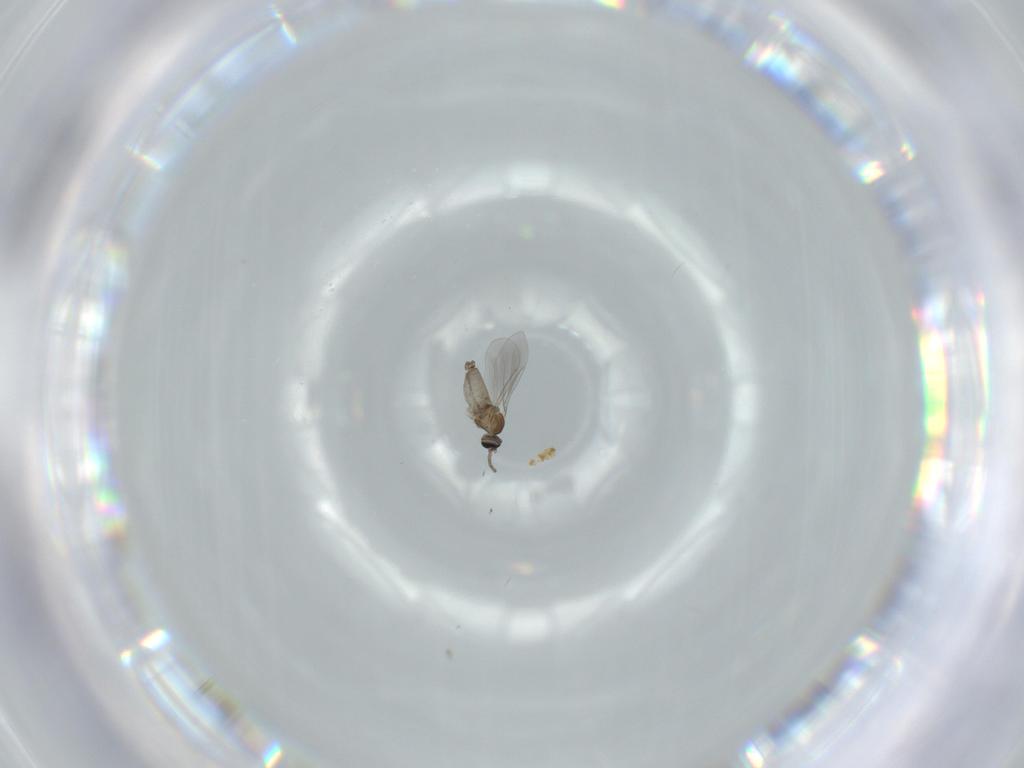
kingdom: Animalia
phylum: Arthropoda
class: Insecta
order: Diptera
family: Cecidomyiidae
